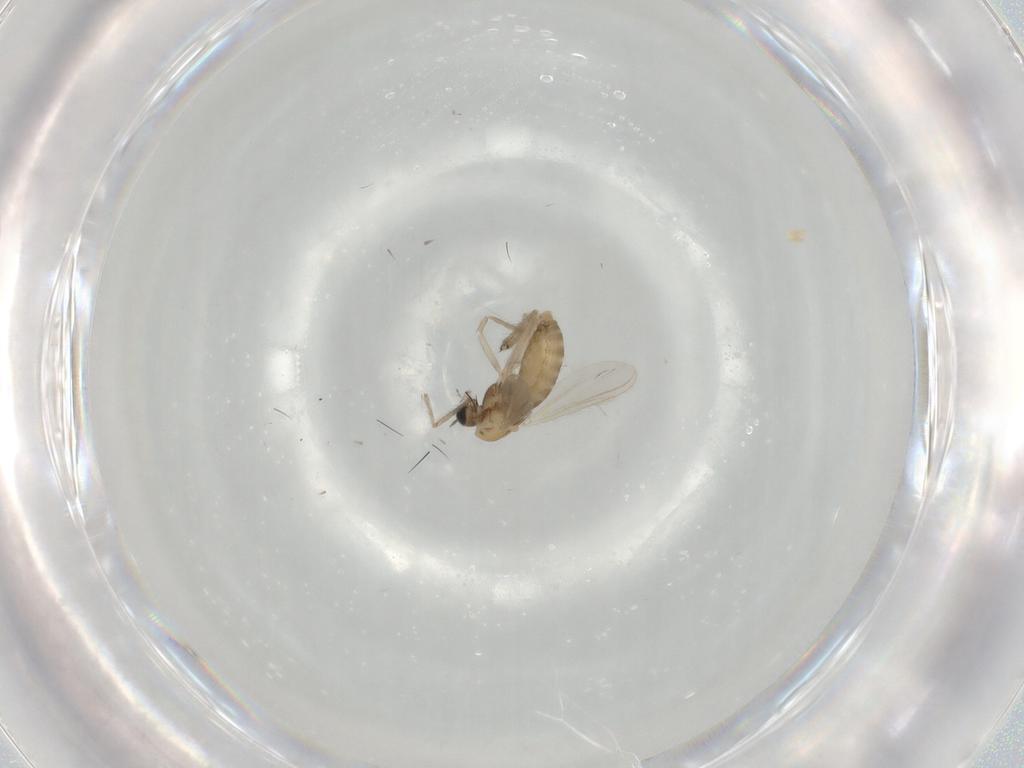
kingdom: Animalia
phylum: Arthropoda
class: Insecta
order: Diptera
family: Chironomidae
